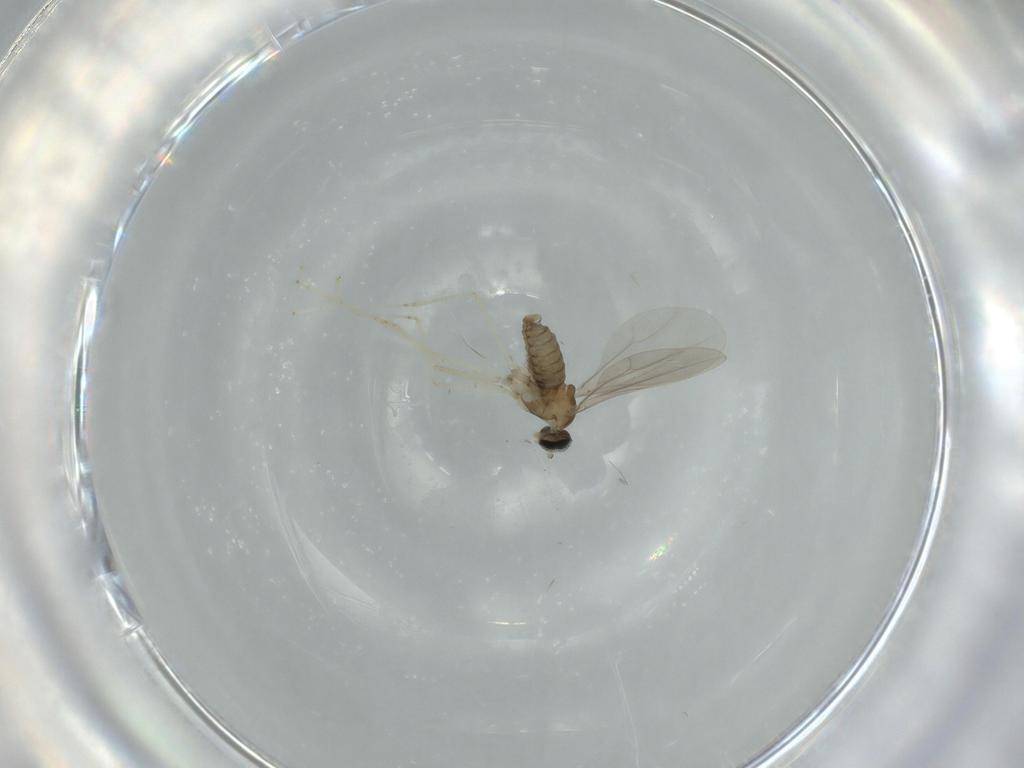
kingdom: Animalia
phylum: Arthropoda
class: Insecta
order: Diptera
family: Cecidomyiidae
